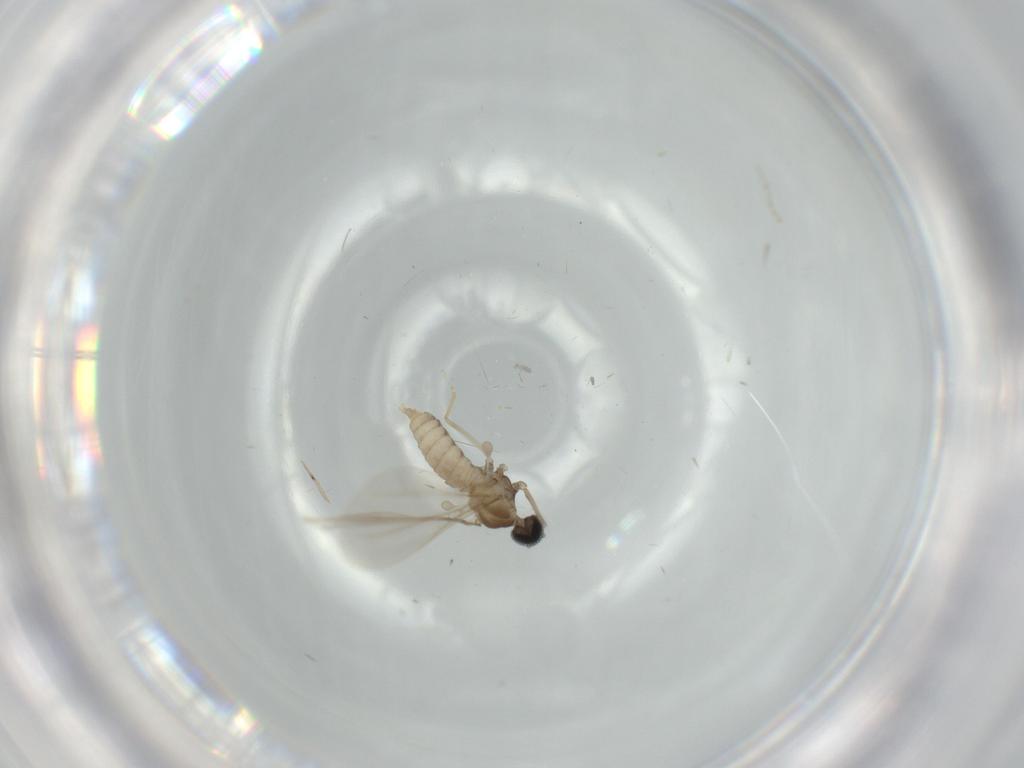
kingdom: Animalia
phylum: Arthropoda
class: Insecta
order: Diptera
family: Cecidomyiidae
